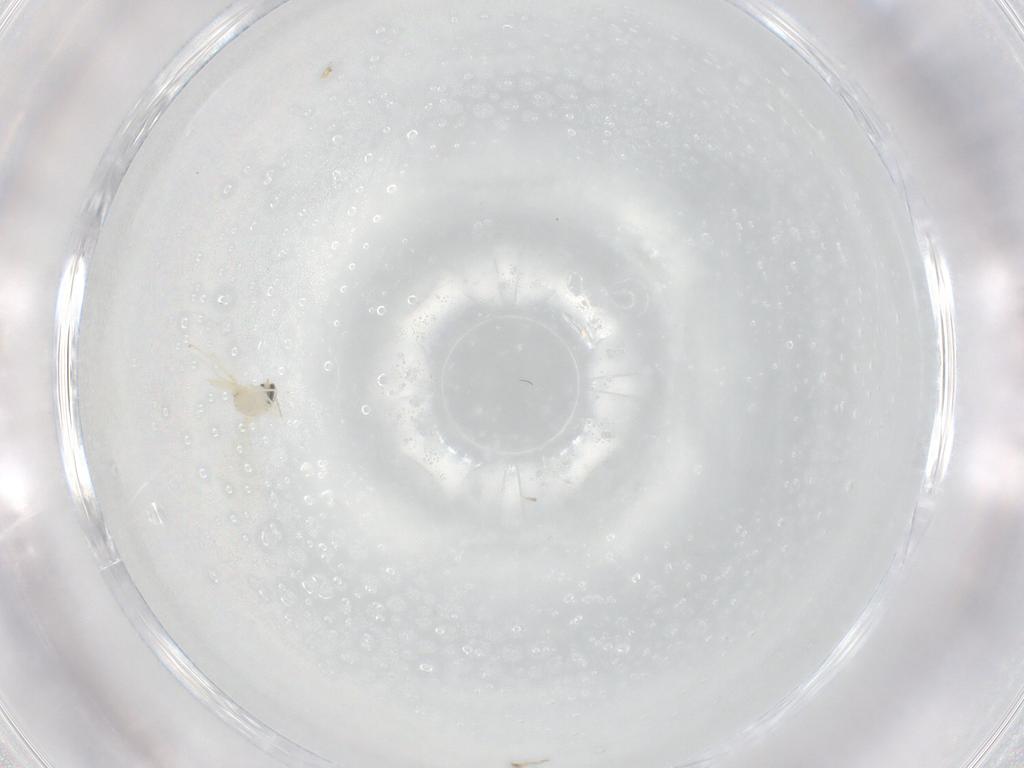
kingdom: Animalia
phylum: Arthropoda
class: Insecta
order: Diptera
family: Cecidomyiidae
